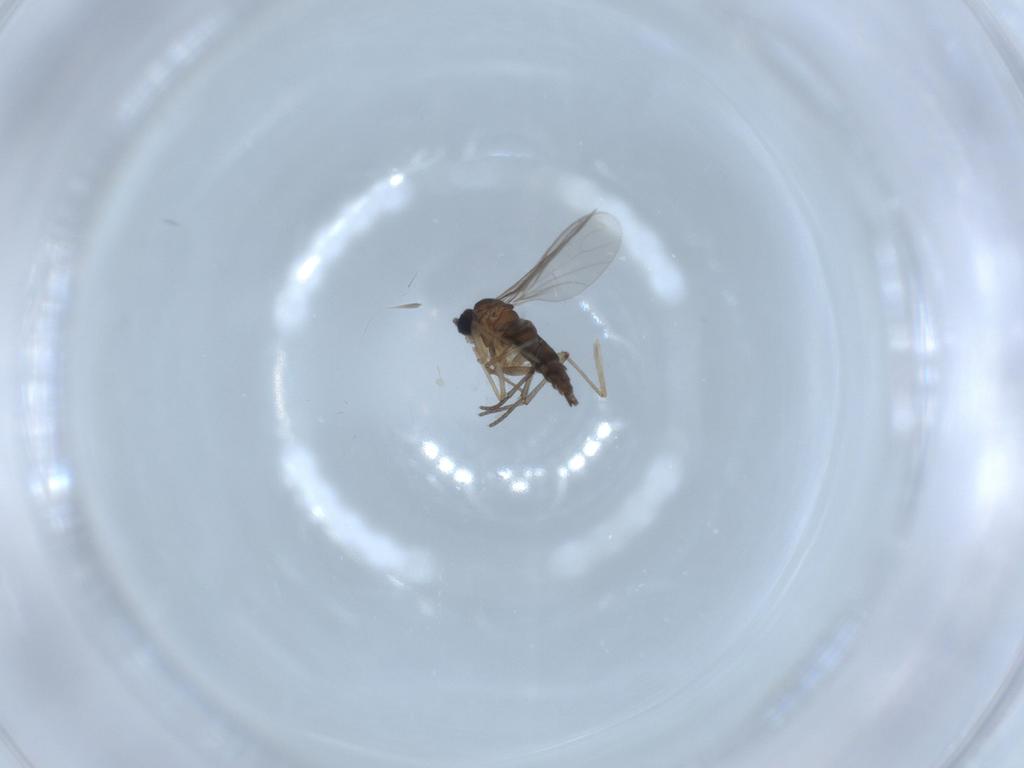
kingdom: Animalia
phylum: Arthropoda
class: Insecta
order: Diptera
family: Sciaridae
